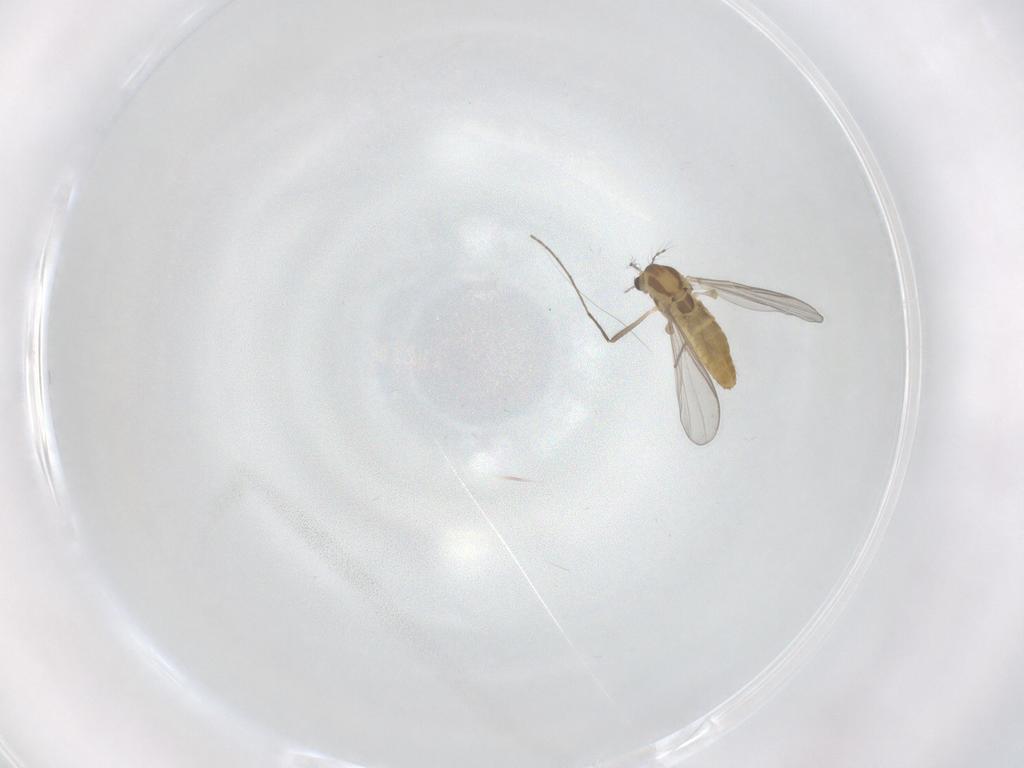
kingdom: Animalia
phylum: Arthropoda
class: Insecta
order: Diptera
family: Chironomidae
